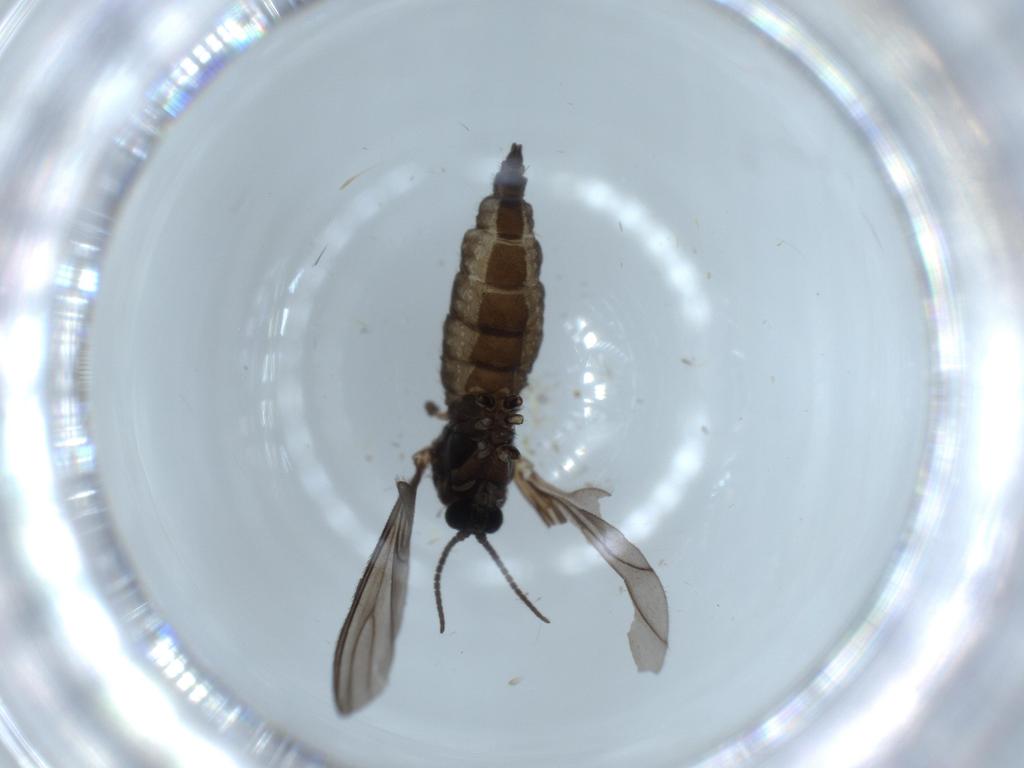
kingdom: Animalia
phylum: Arthropoda
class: Insecta
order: Diptera
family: Sciaridae
